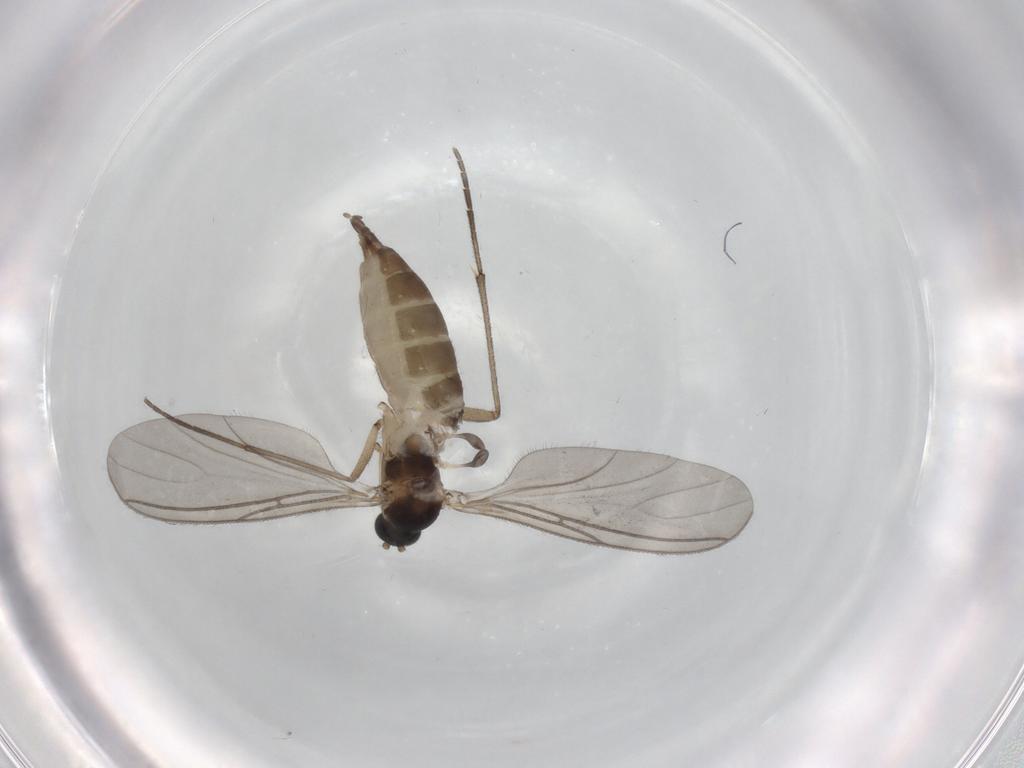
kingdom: Animalia
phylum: Arthropoda
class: Insecta
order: Diptera
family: Sciaridae
